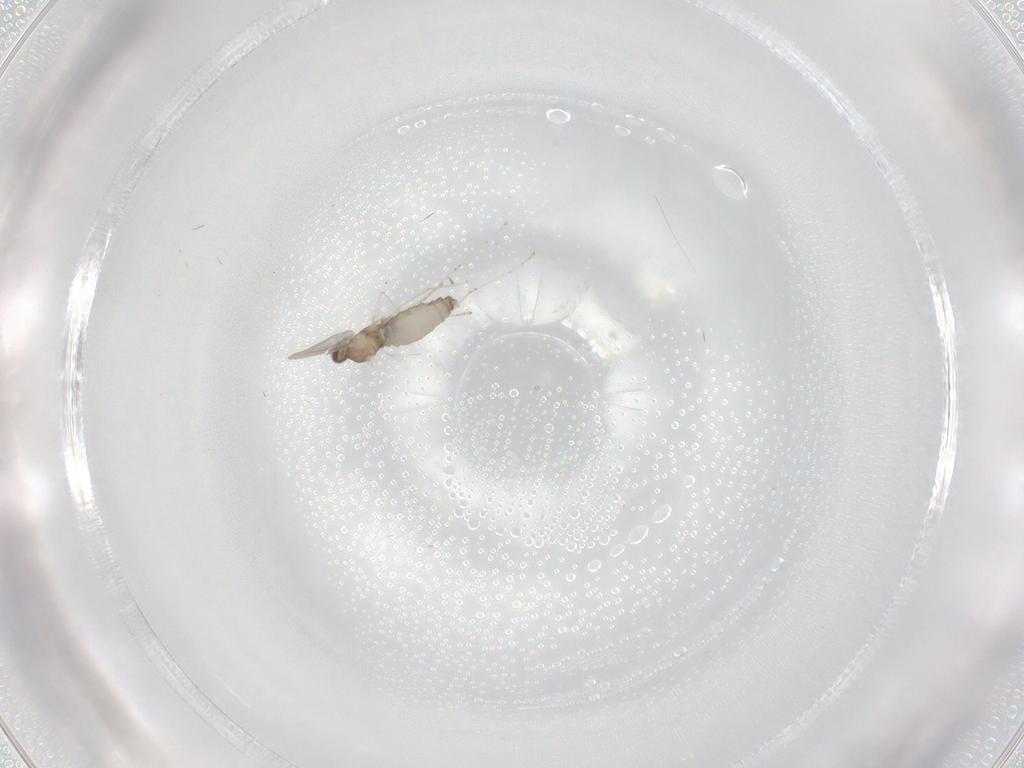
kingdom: Animalia
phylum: Arthropoda
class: Insecta
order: Diptera
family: Cecidomyiidae
